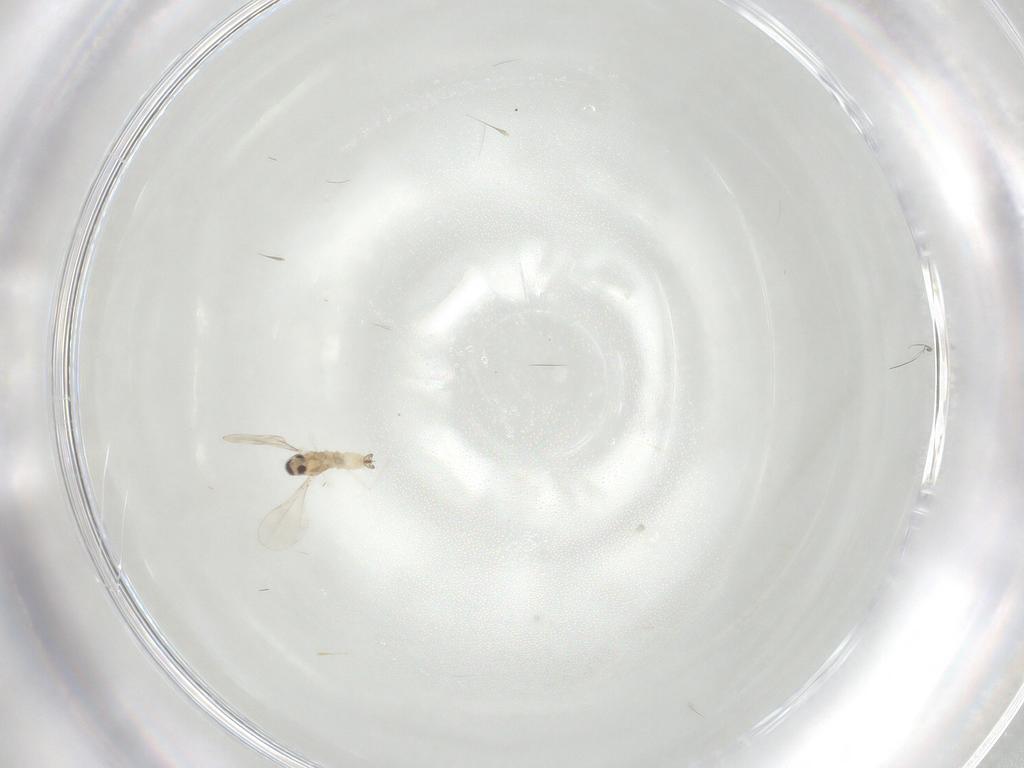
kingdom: Animalia
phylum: Arthropoda
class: Insecta
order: Diptera
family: Cecidomyiidae
